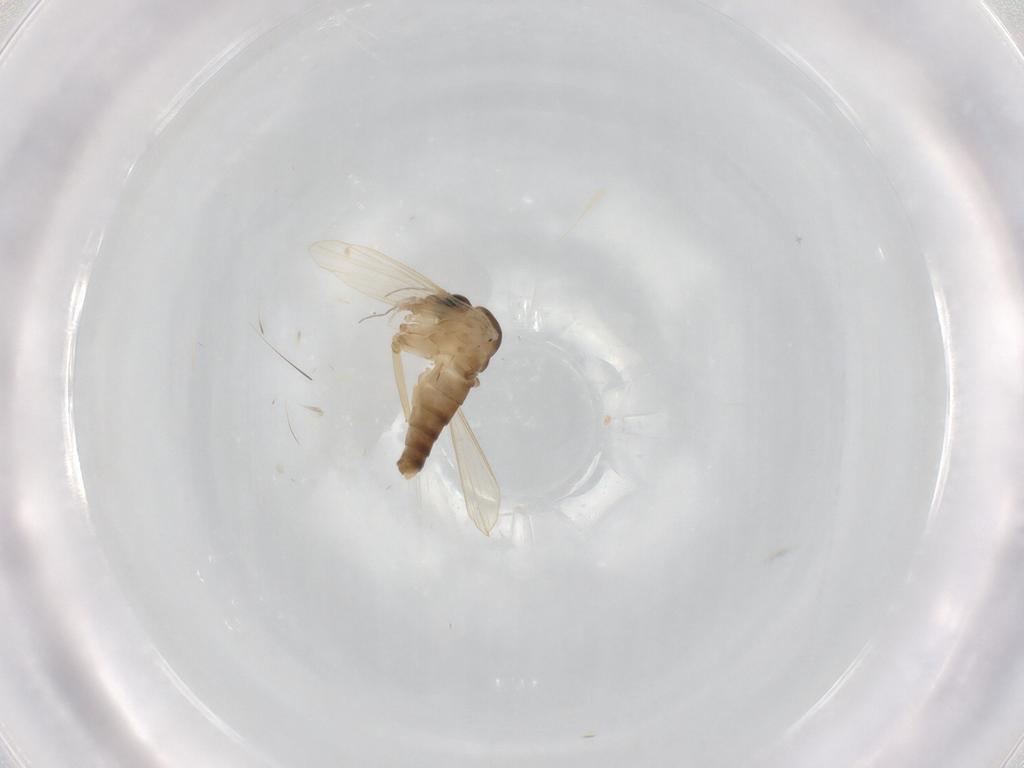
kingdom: Animalia
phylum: Arthropoda
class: Insecta
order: Diptera
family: Psychodidae
